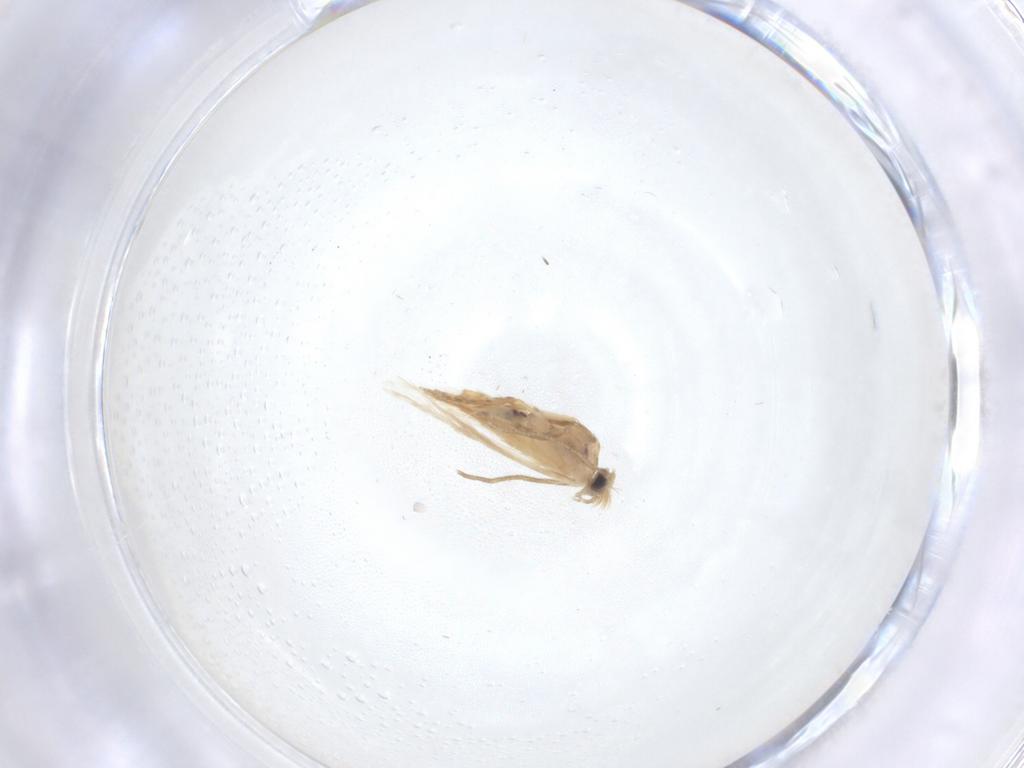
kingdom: Animalia
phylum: Arthropoda
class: Insecta
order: Lepidoptera
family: Nepticulidae
